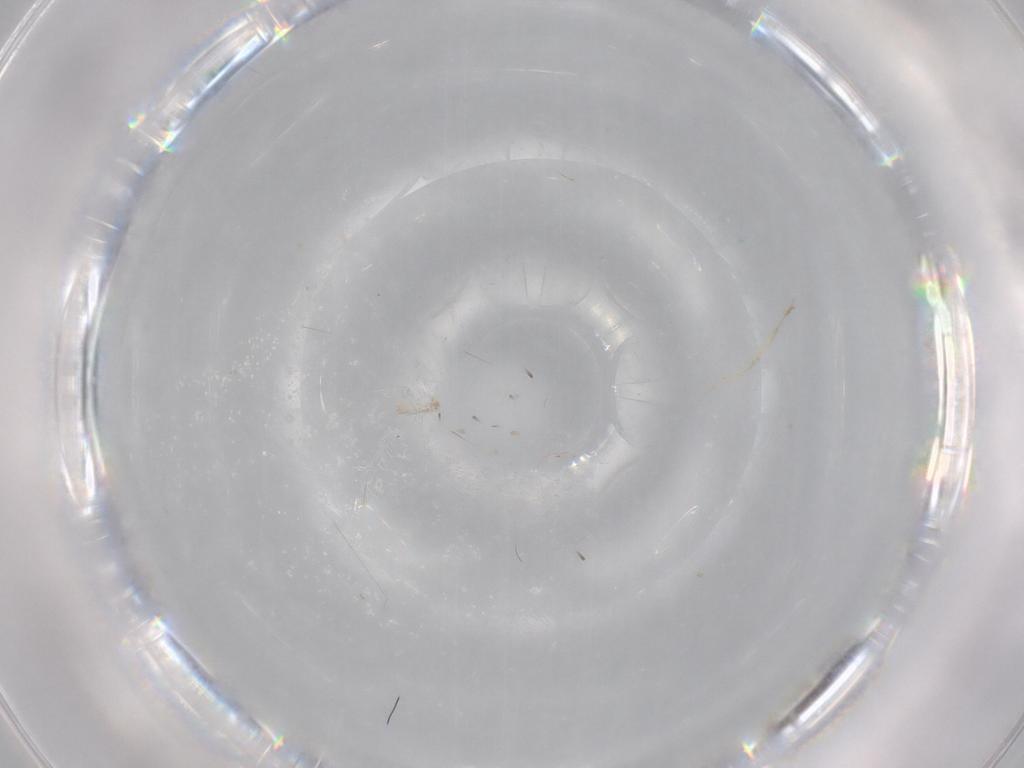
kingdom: Animalia
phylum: Arthropoda
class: Insecta
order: Hymenoptera
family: Mymaridae
